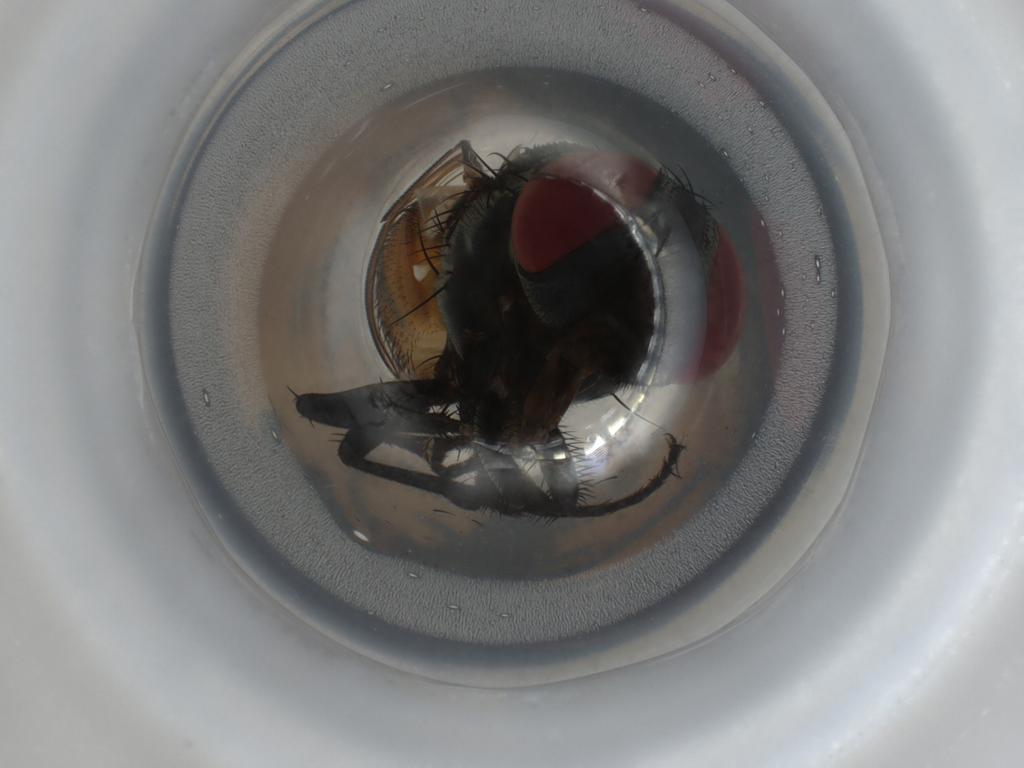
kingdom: Animalia
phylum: Arthropoda
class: Insecta
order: Diptera
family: Muscidae
